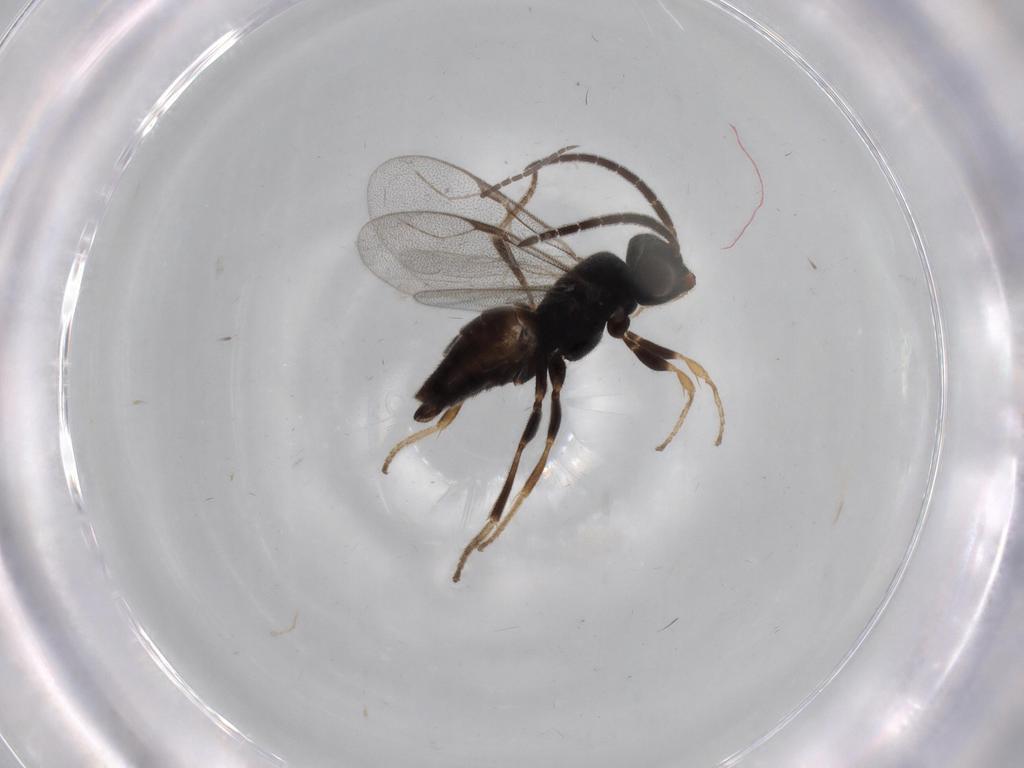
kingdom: Animalia
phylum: Arthropoda
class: Insecta
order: Hymenoptera
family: Dryinidae
